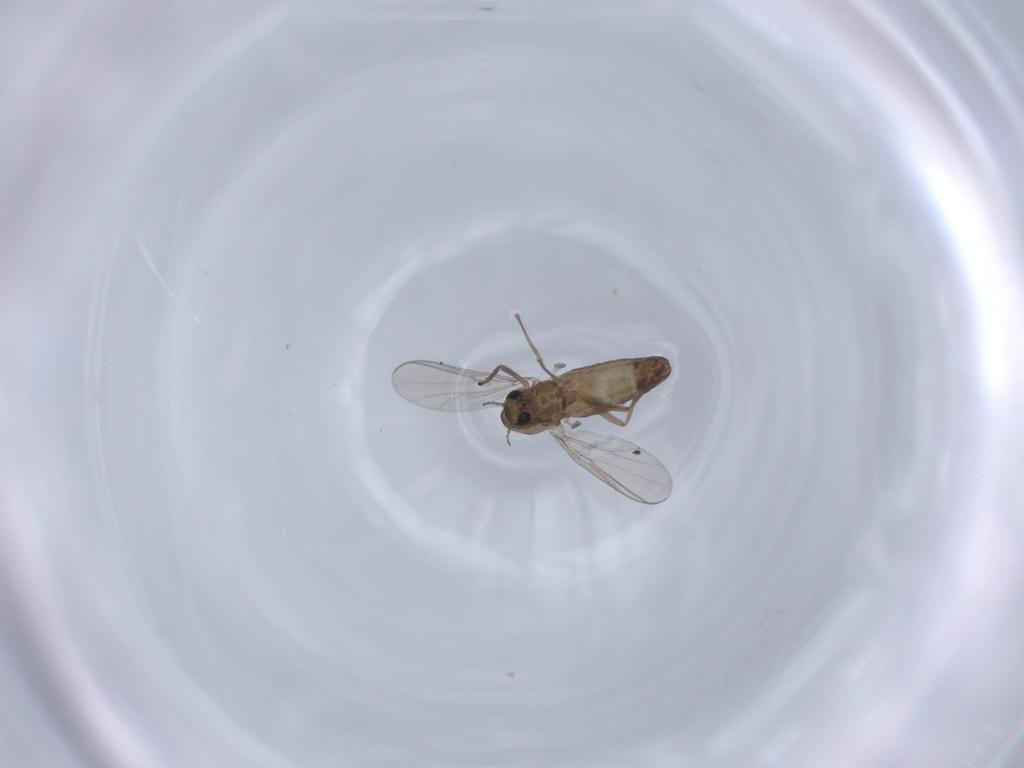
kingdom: Animalia
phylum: Arthropoda
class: Insecta
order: Diptera
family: Chironomidae
